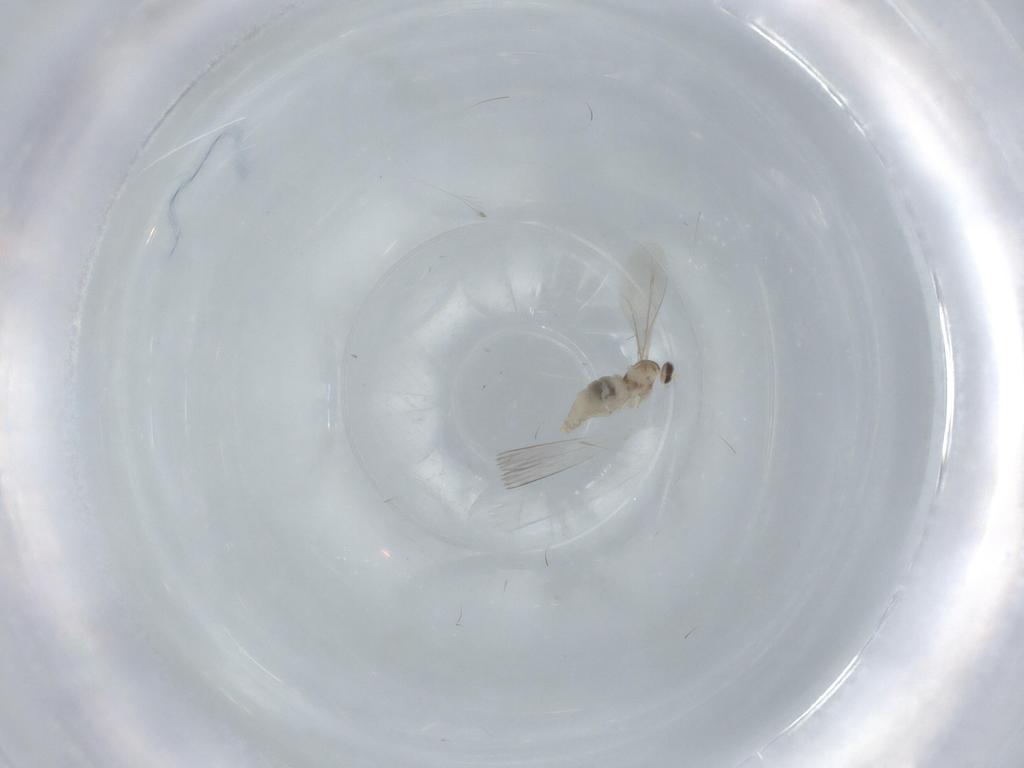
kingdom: Animalia
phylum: Arthropoda
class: Insecta
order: Diptera
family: Cecidomyiidae
